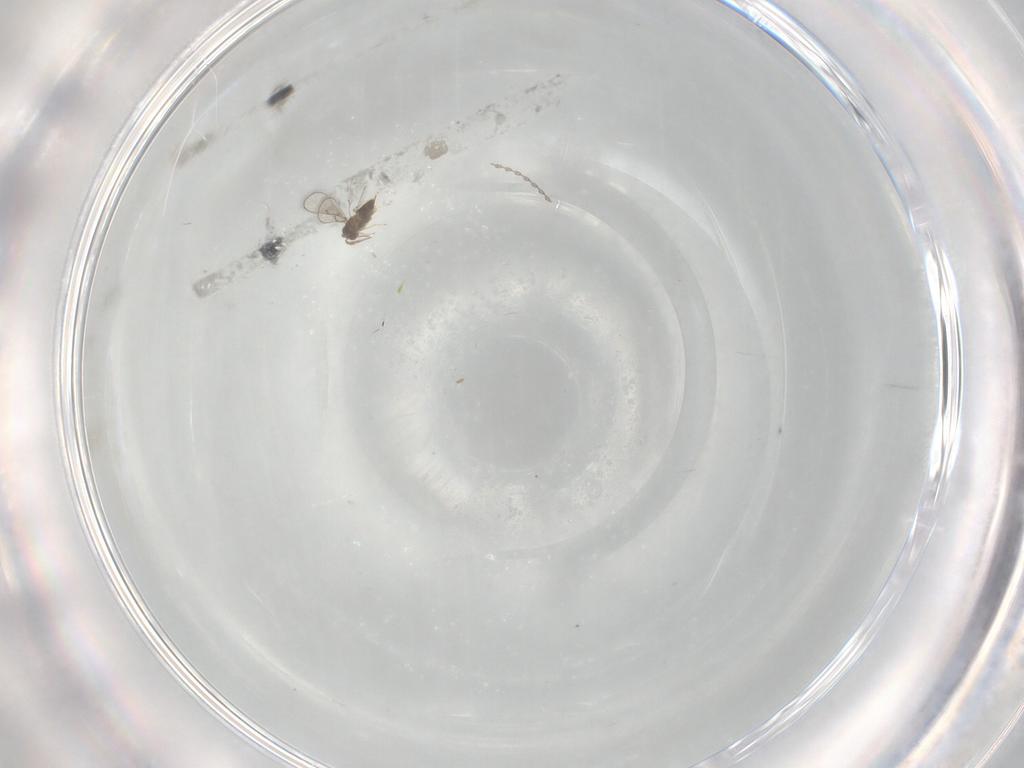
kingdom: Animalia
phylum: Arthropoda
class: Insecta
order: Hymenoptera
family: Trichogrammatidae
